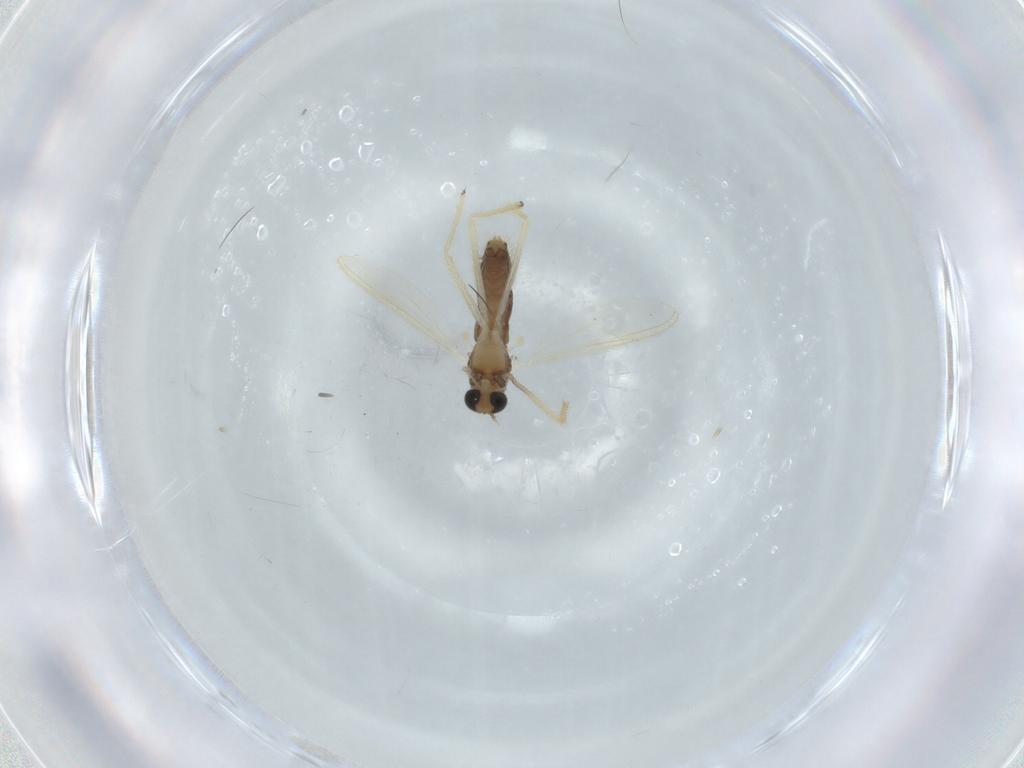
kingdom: Animalia
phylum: Arthropoda
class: Insecta
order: Diptera
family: Chironomidae
